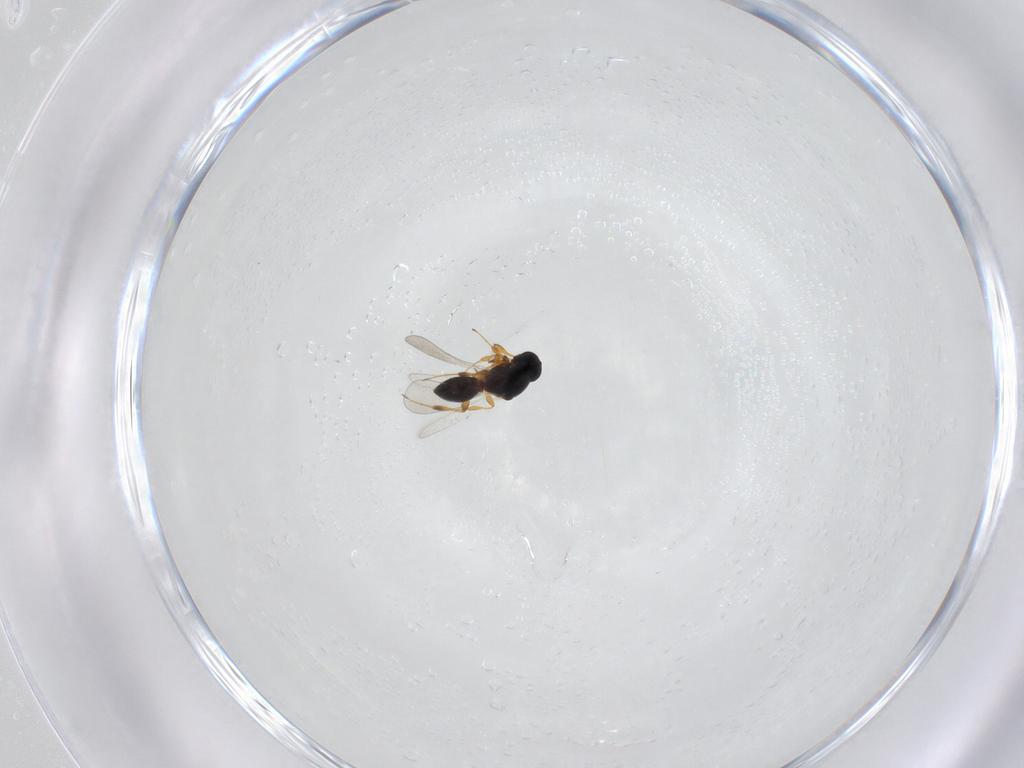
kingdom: Animalia
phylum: Arthropoda
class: Insecta
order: Hymenoptera
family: Platygastridae
